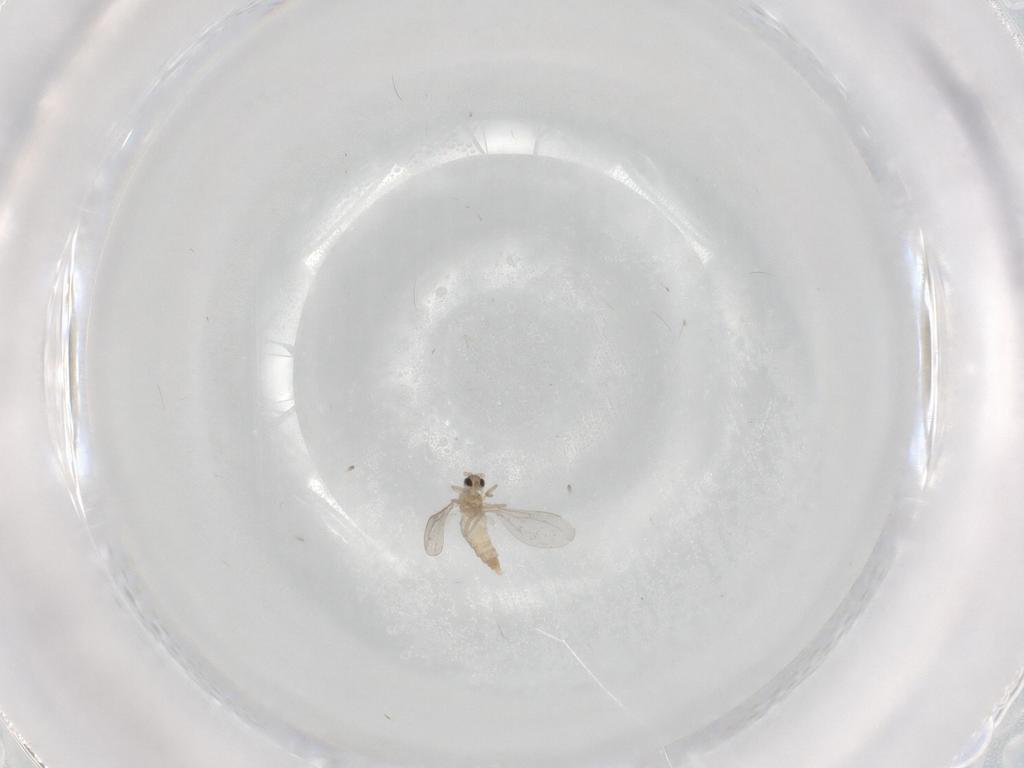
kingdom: Animalia
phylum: Arthropoda
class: Insecta
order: Diptera
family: Cecidomyiidae
